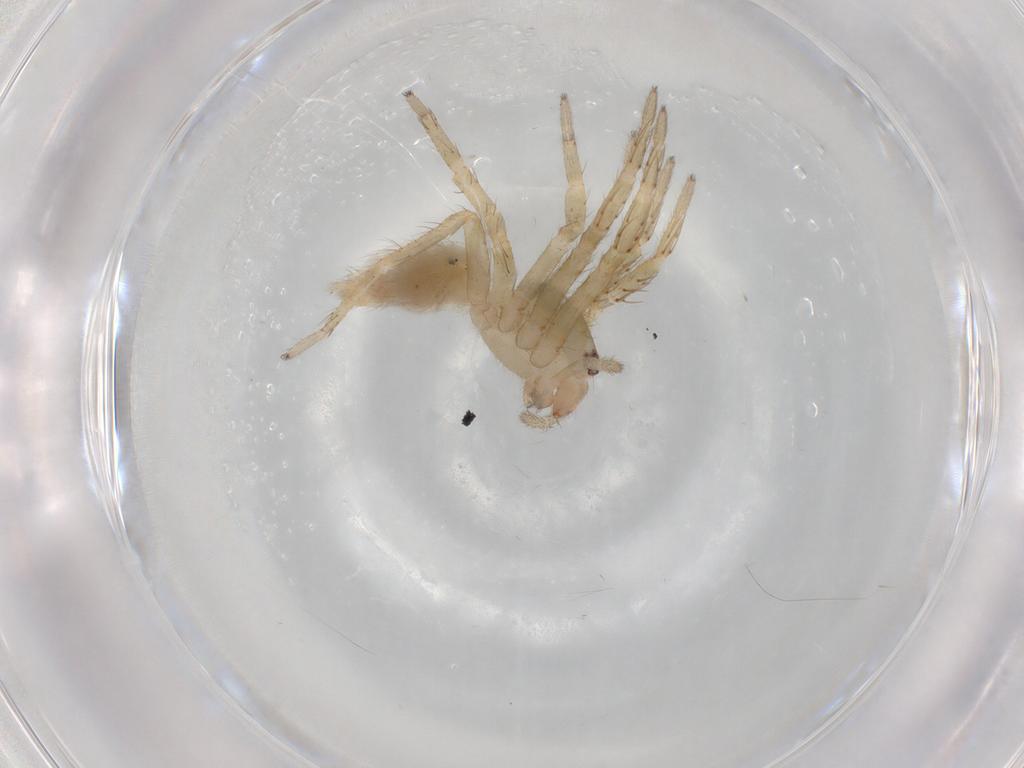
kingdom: Animalia
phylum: Arthropoda
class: Arachnida
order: Araneae
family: Clubionidae
